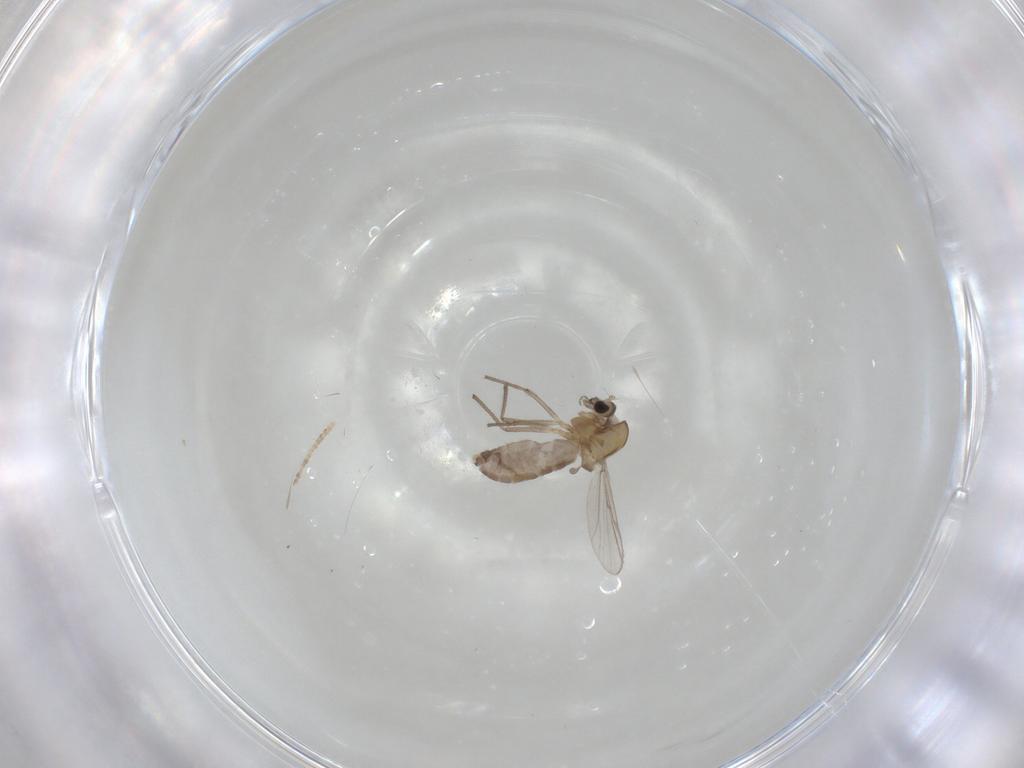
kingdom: Animalia
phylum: Arthropoda
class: Insecta
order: Diptera
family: Chironomidae
